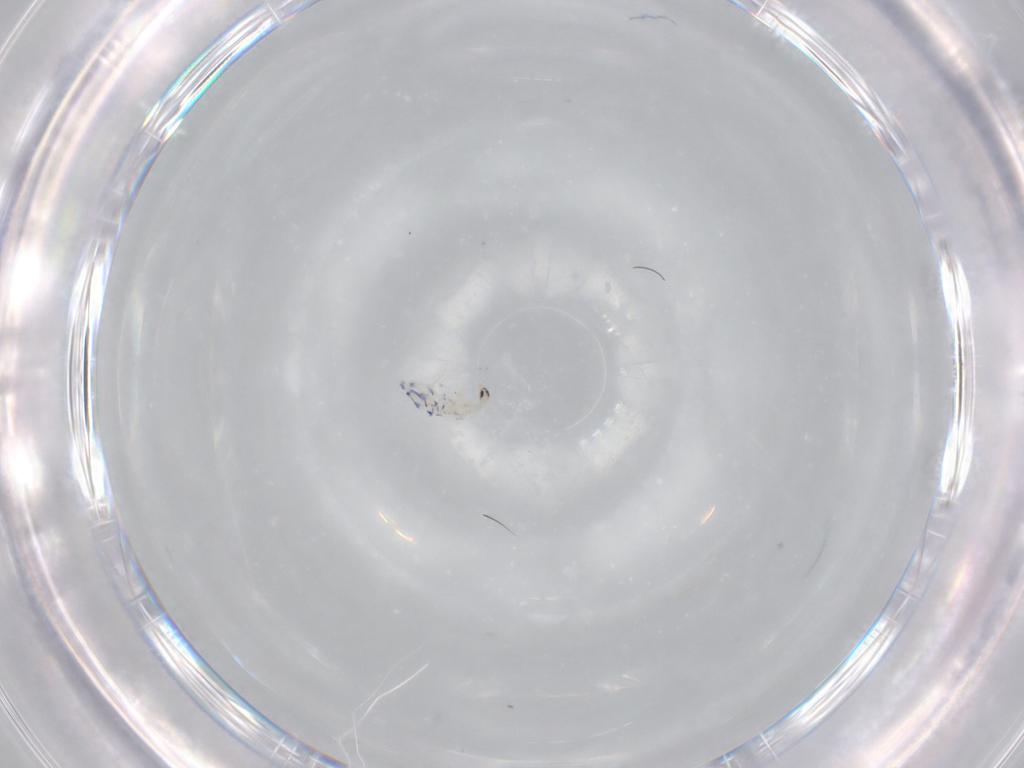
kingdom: Animalia
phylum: Arthropoda
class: Collembola
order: Entomobryomorpha
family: Entomobryidae
